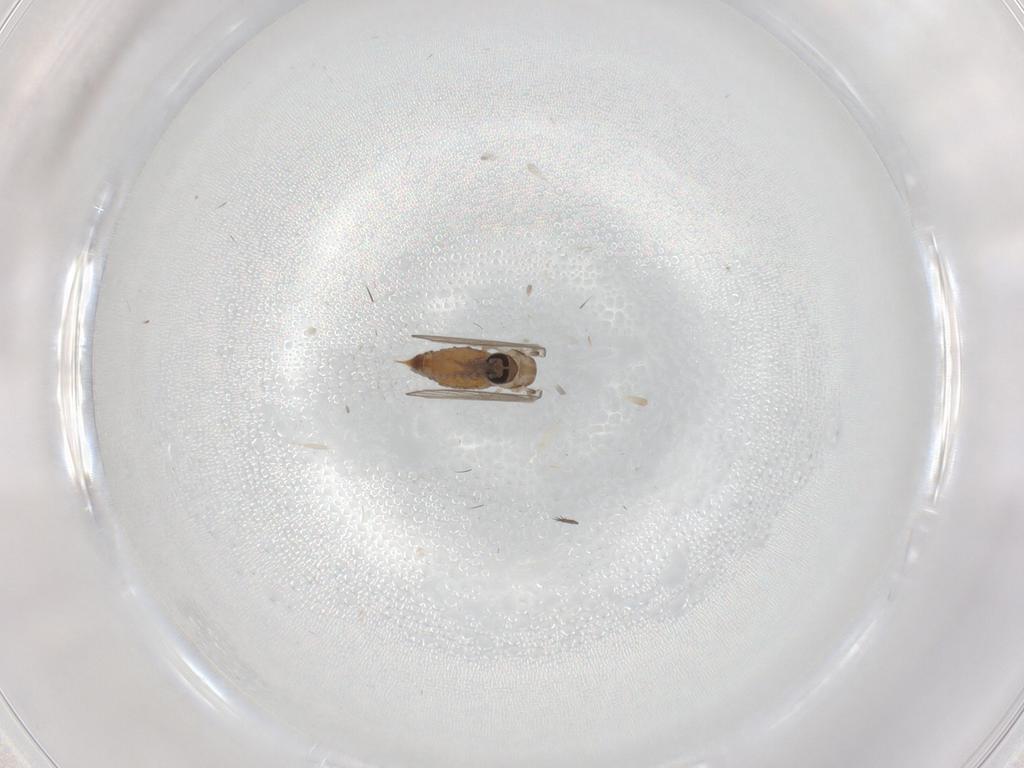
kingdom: Animalia
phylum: Arthropoda
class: Insecta
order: Diptera
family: Psychodidae
